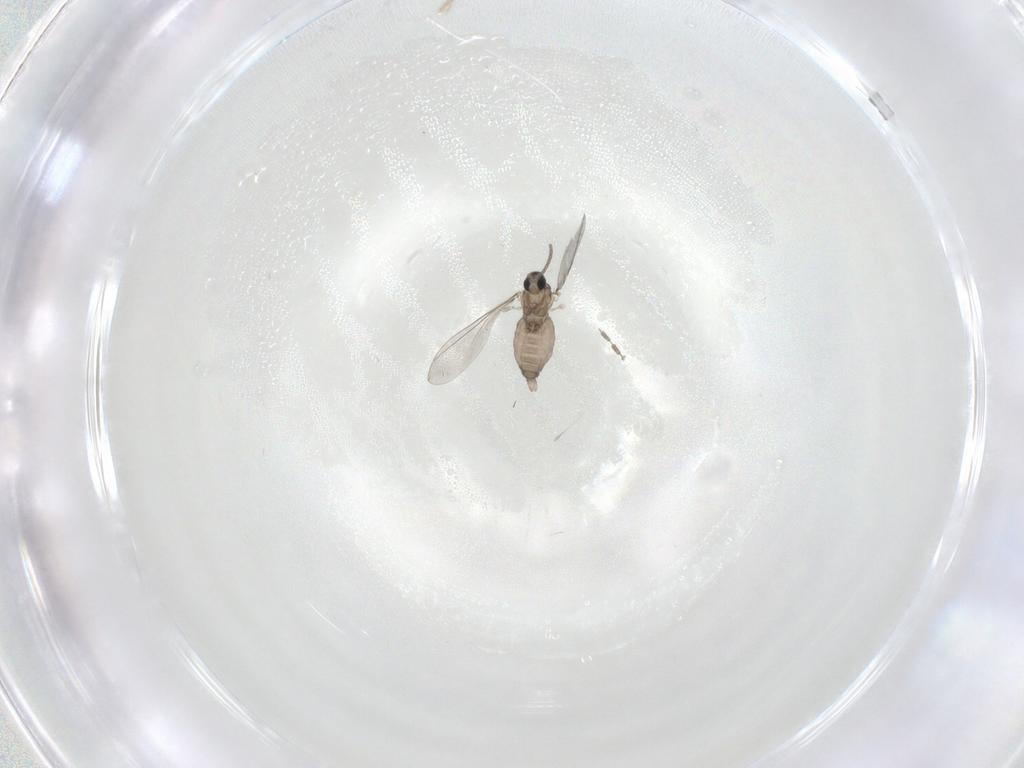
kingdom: Animalia
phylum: Arthropoda
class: Insecta
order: Diptera
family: Cecidomyiidae
